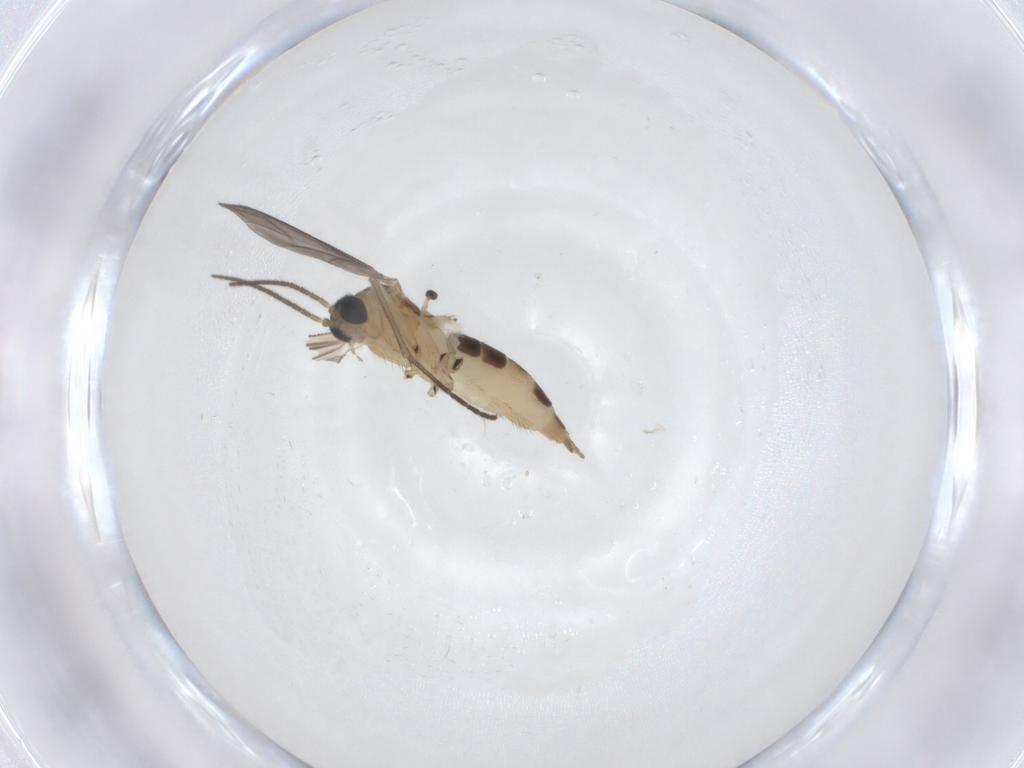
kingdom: Animalia
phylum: Arthropoda
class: Insecta
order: Diptera
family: Sciaridae
